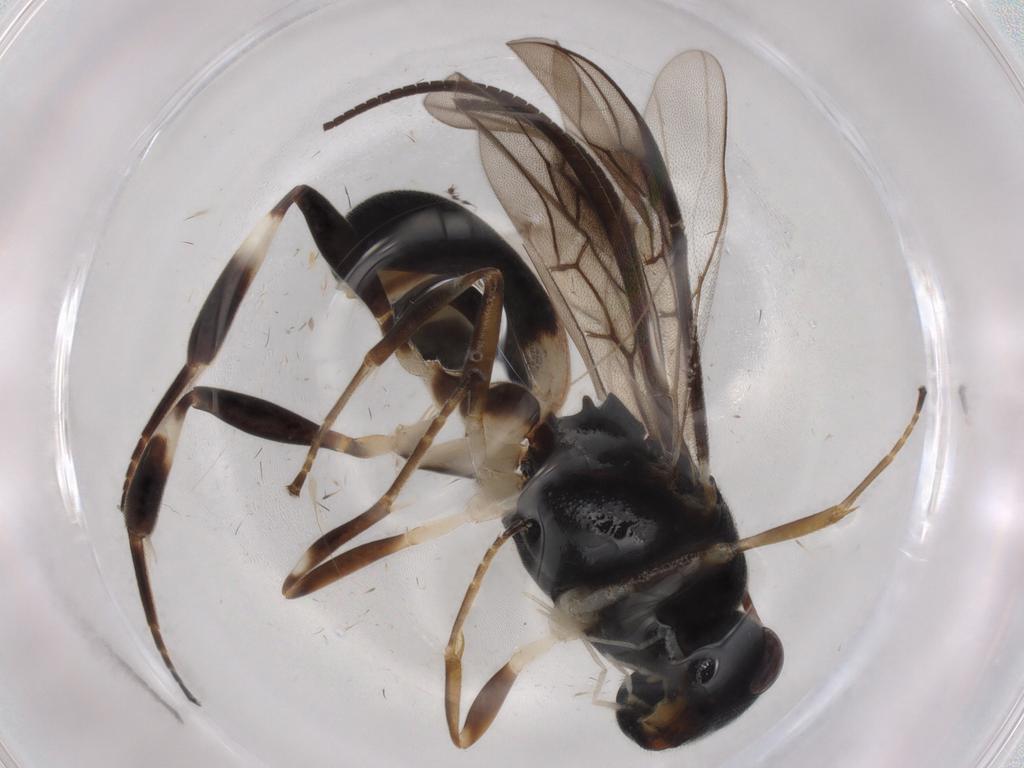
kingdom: Animalia
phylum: Arthropoda
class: Insecta
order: Hymenoptera
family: Braconidae
